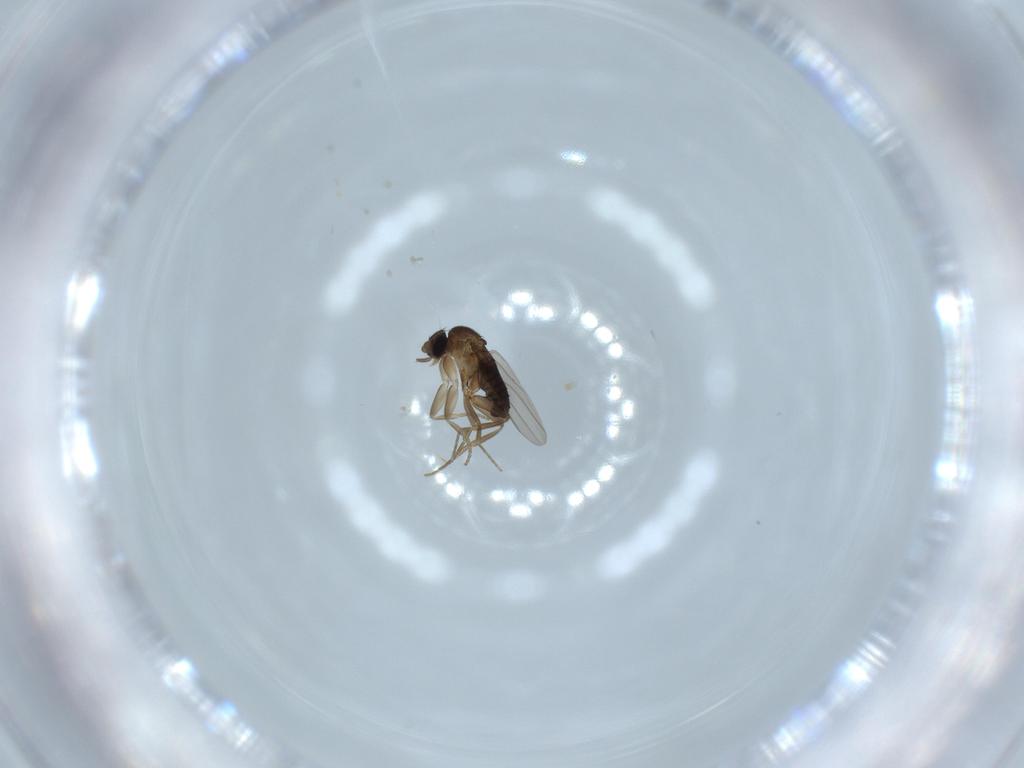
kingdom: Animalia
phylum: Arthropoda
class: Insecta
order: Diptera
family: Phoridae
